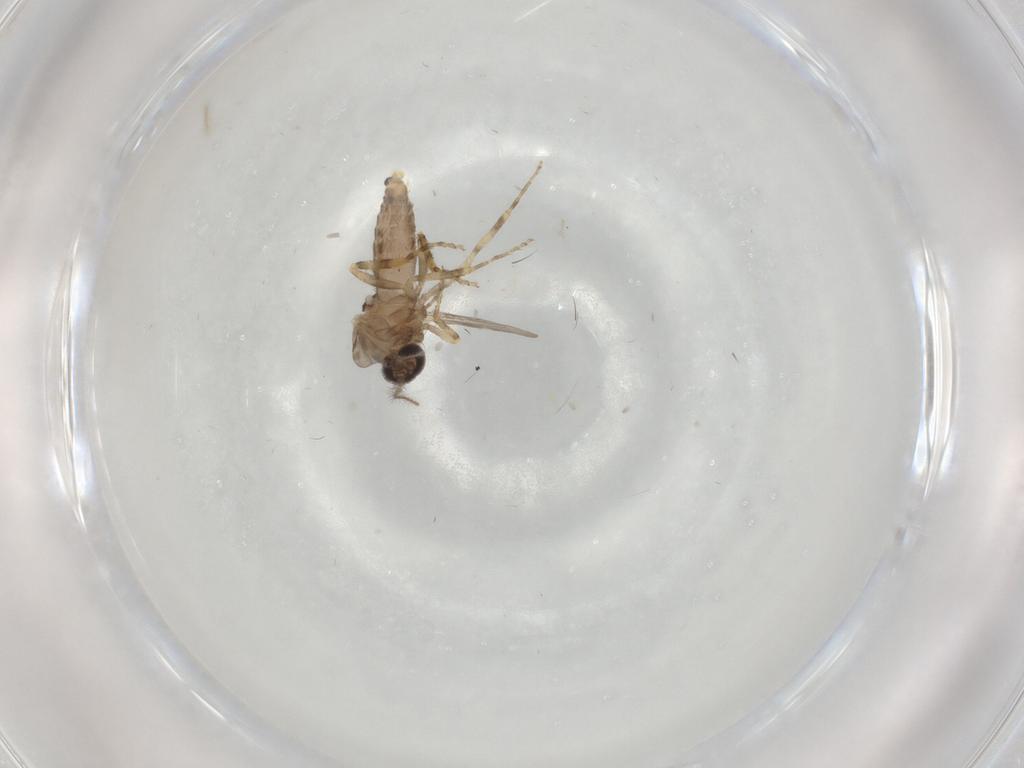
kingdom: Animalia
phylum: Arthropoda
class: Insecta
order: Diptera
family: Ceratopogonidae
